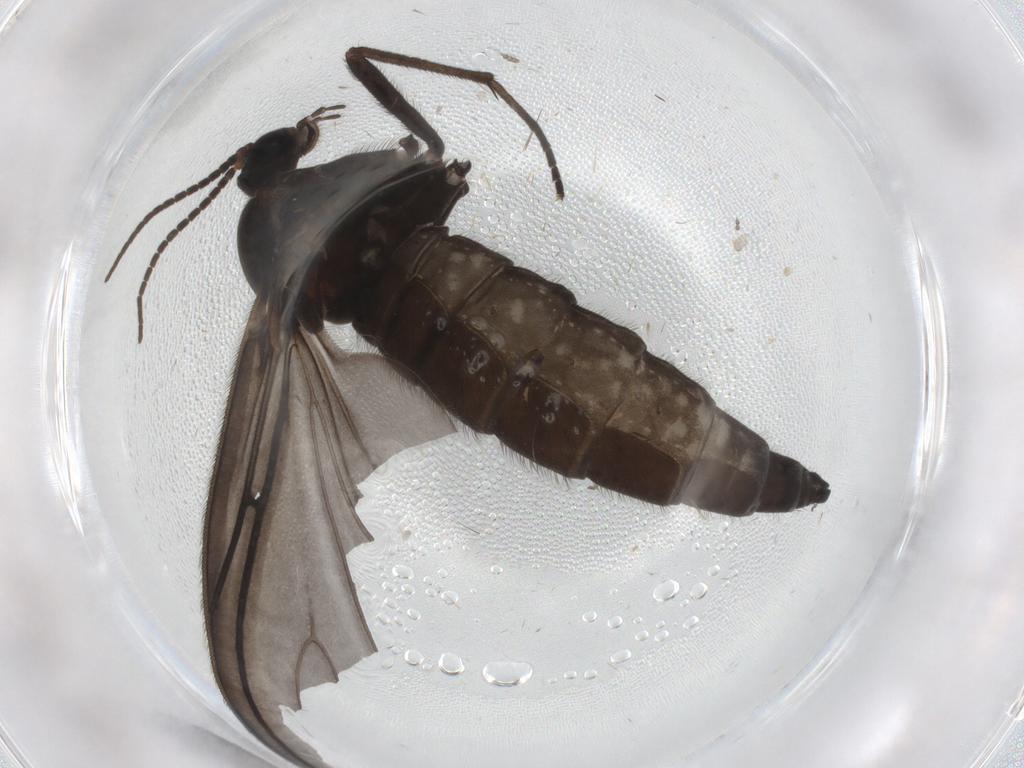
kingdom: Animalia
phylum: Arthropoda
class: Insecta
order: Diptera
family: Cecidomyiidae
